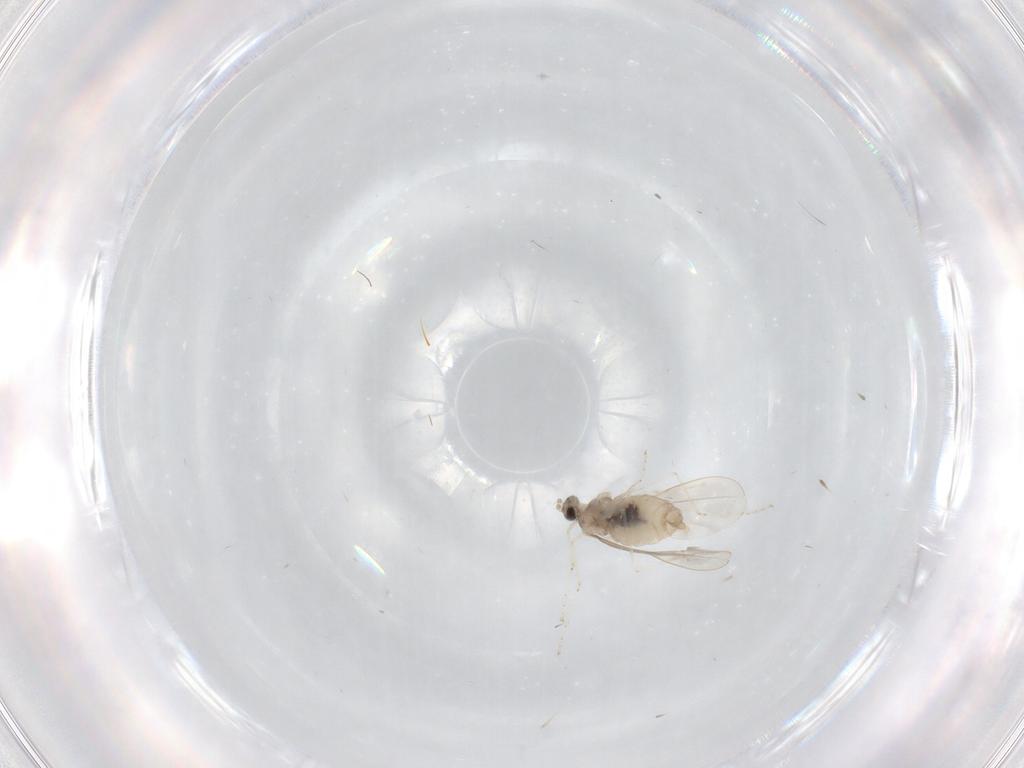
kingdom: Animalia
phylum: Arthropoda
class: Insecta
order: Diptera
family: Cecidomyiidae
